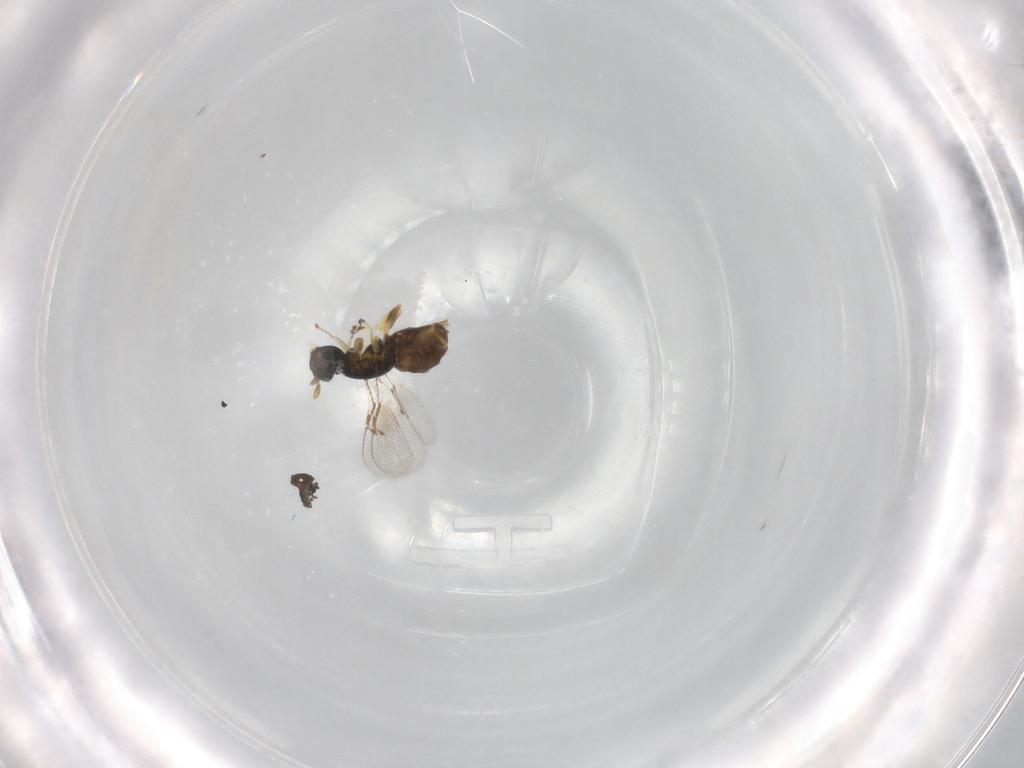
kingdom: Animalia
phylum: Arthropoda
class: Insecta
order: Hymenoptera
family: Eulophidae
